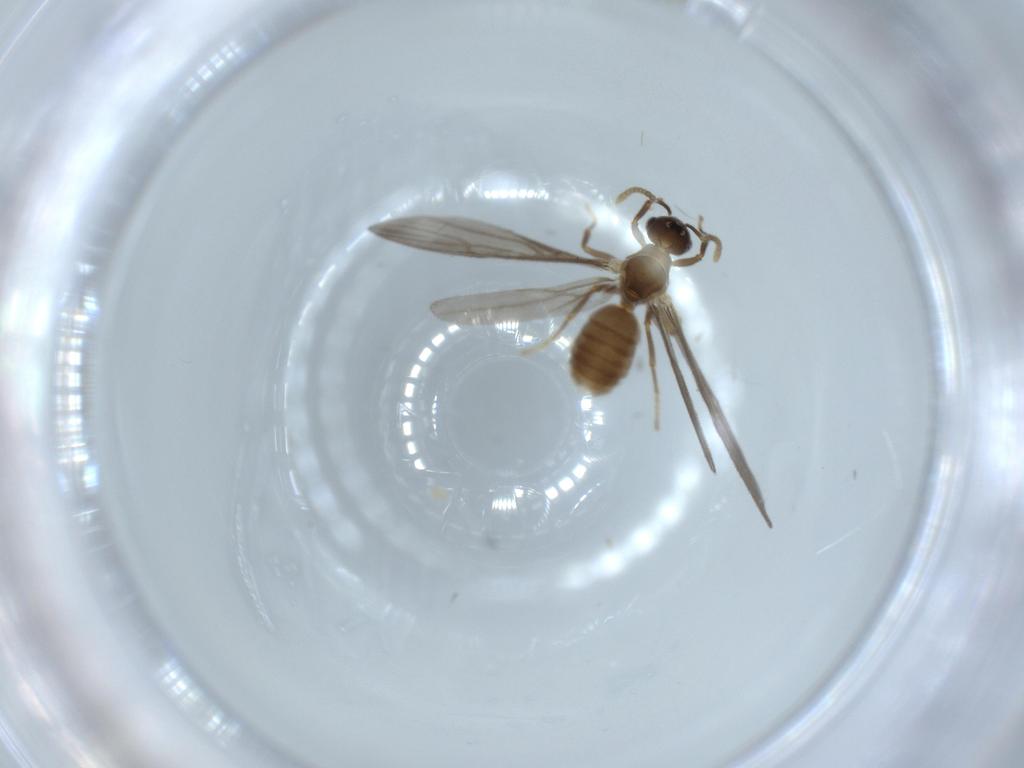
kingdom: Animalia
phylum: Arthropoda
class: Insecta
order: Hymenoptera
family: Formicidae
